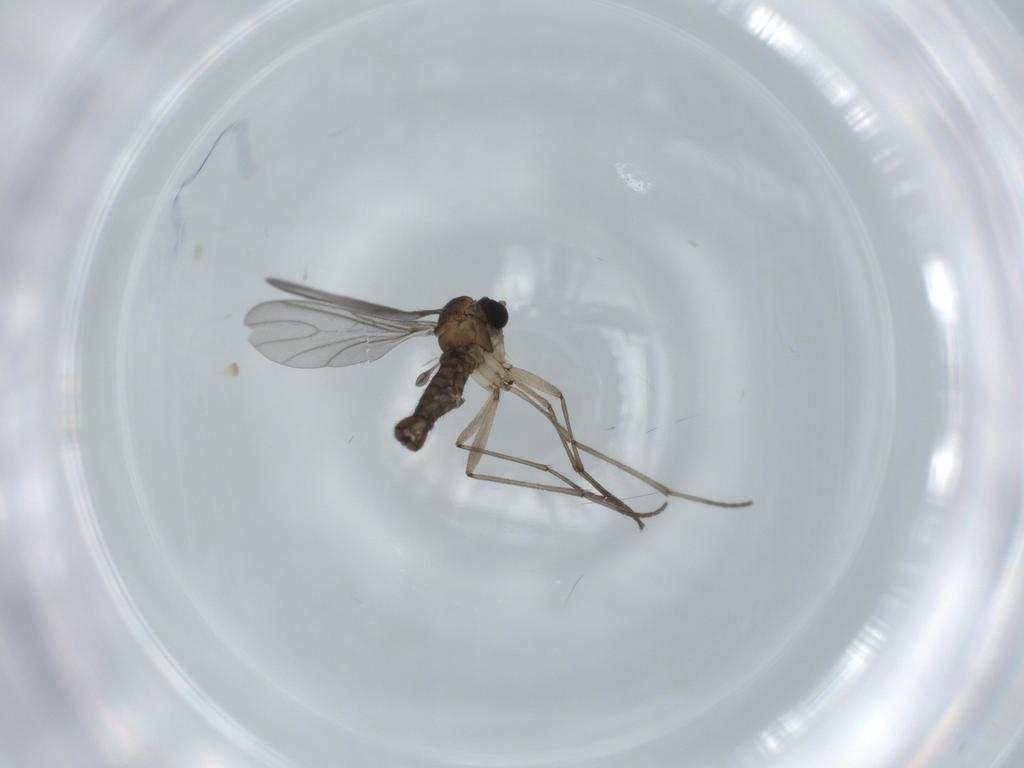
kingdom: Animalia
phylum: Arthropoda
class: Insecta
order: Diptera
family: Sciaridae
